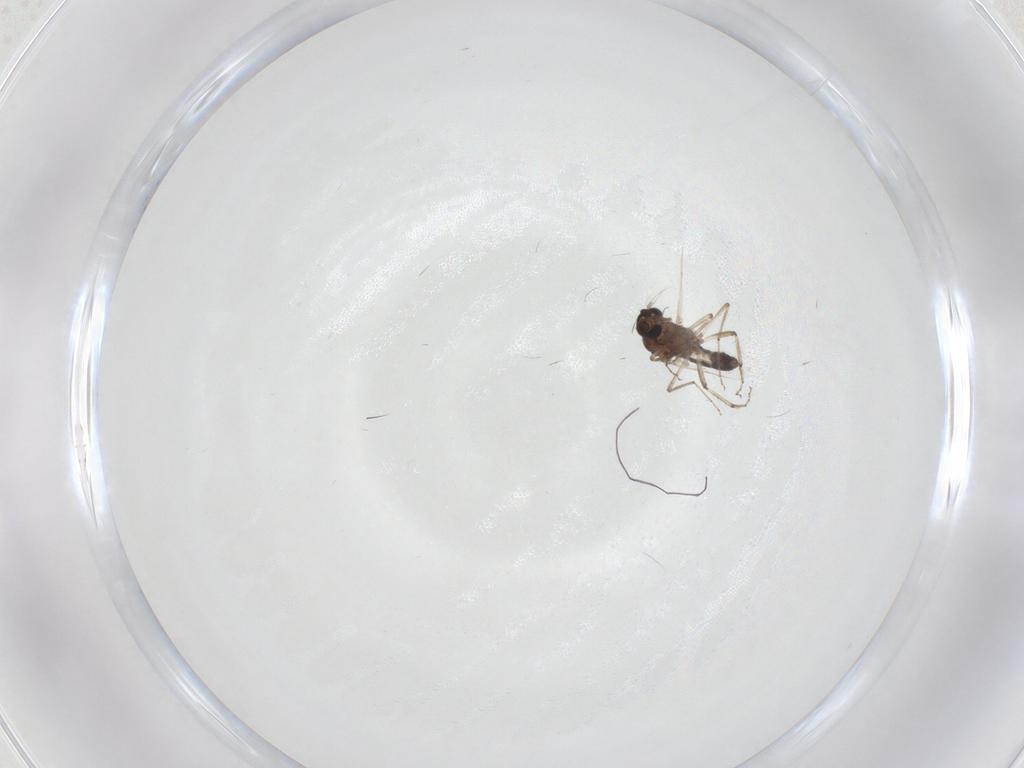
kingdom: Animalia
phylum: Arthropoda
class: Insecta
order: Diptera
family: Ceratopogonidae
